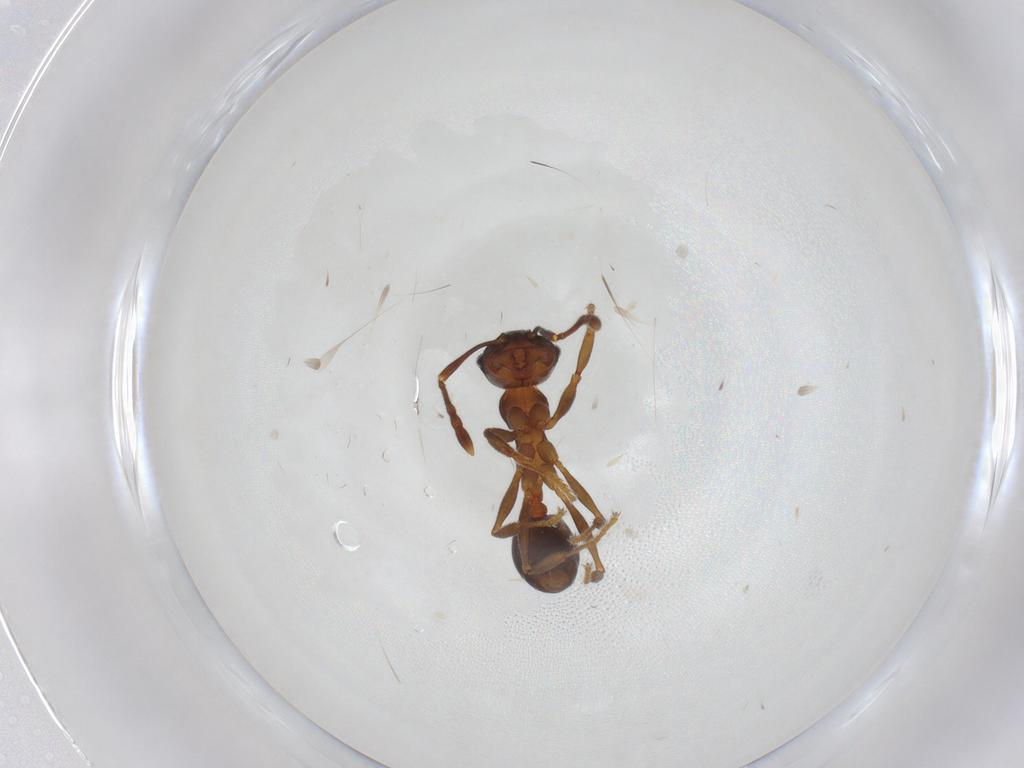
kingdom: Animalia
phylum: Arthropoda
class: Insecta
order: Hymenoptera
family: Formicidae
